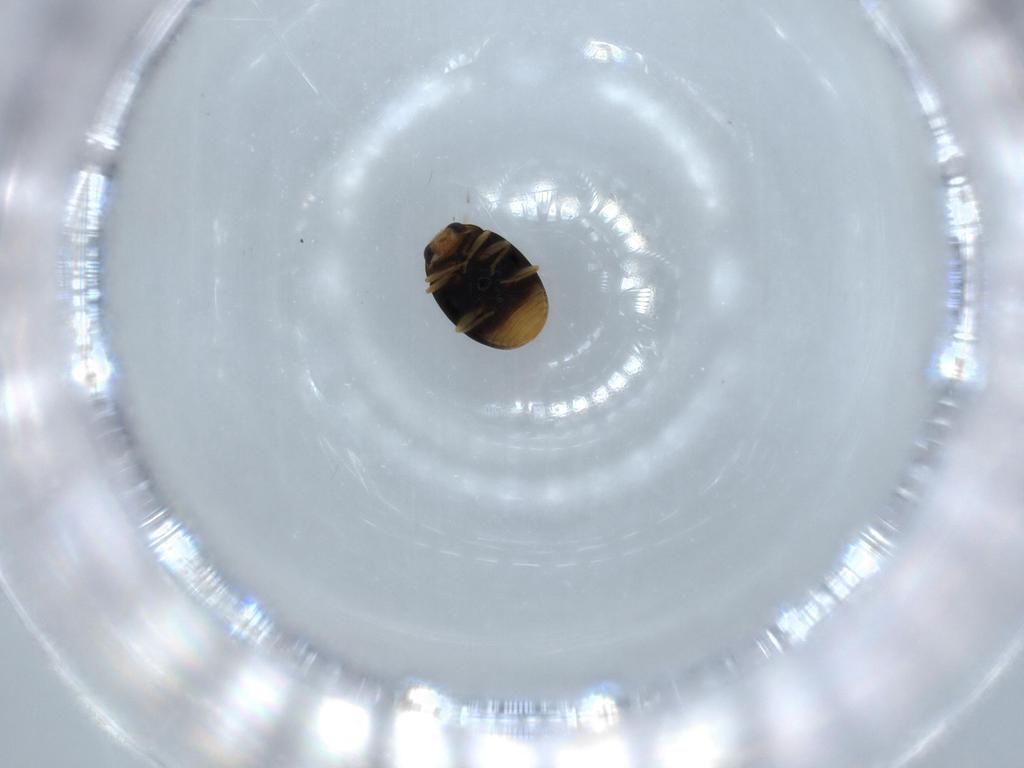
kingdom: Animalia
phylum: Arthropoda
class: Insecta
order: Coleoptera
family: Coccinellidae
